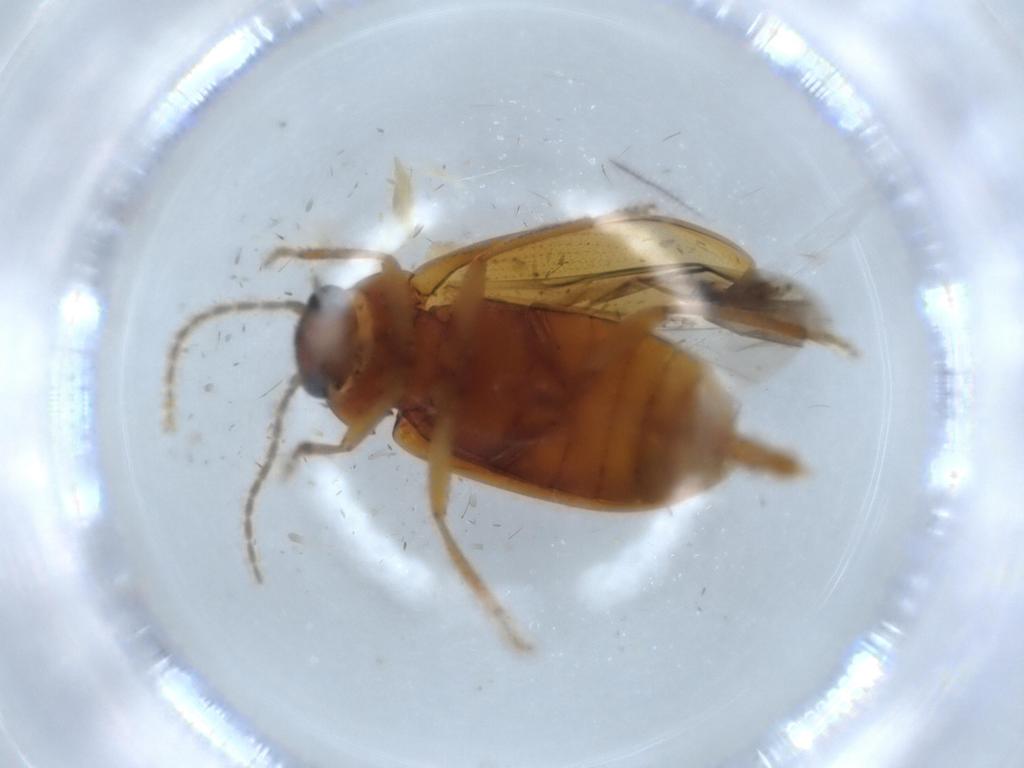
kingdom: Animalia
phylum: Arthropoda
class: Insecta
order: Coleoptera
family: Ptilodactylidae
